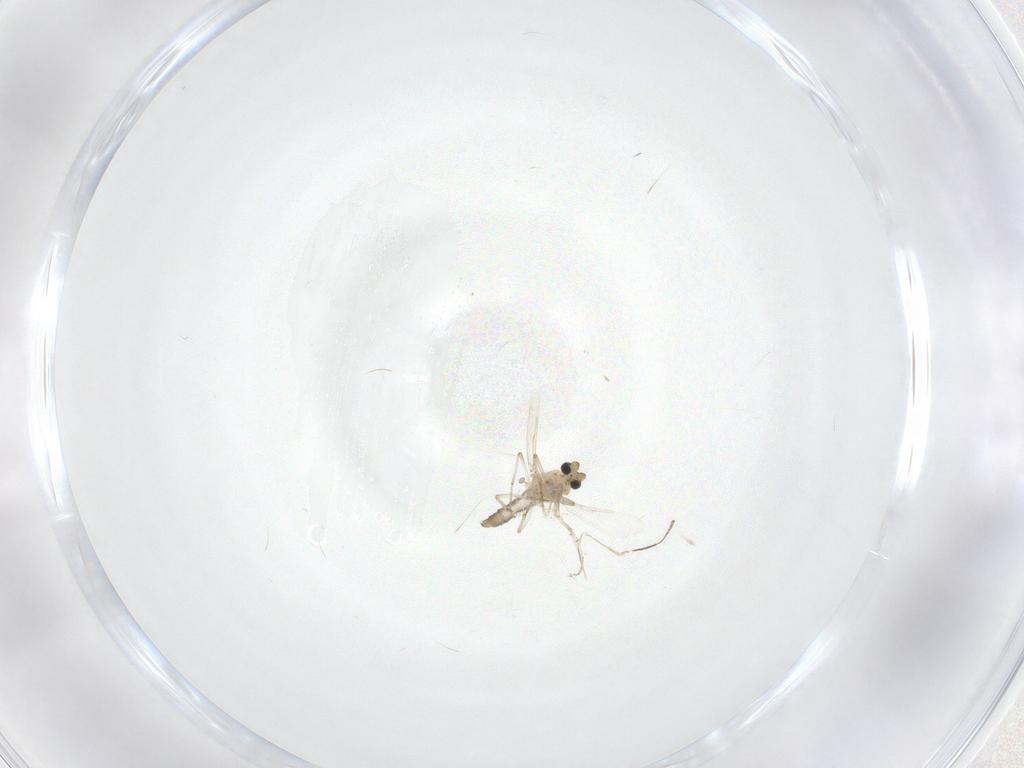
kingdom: Animalia
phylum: Arthropoda
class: Insecta
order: Diptera
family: Ceratopogonidae
